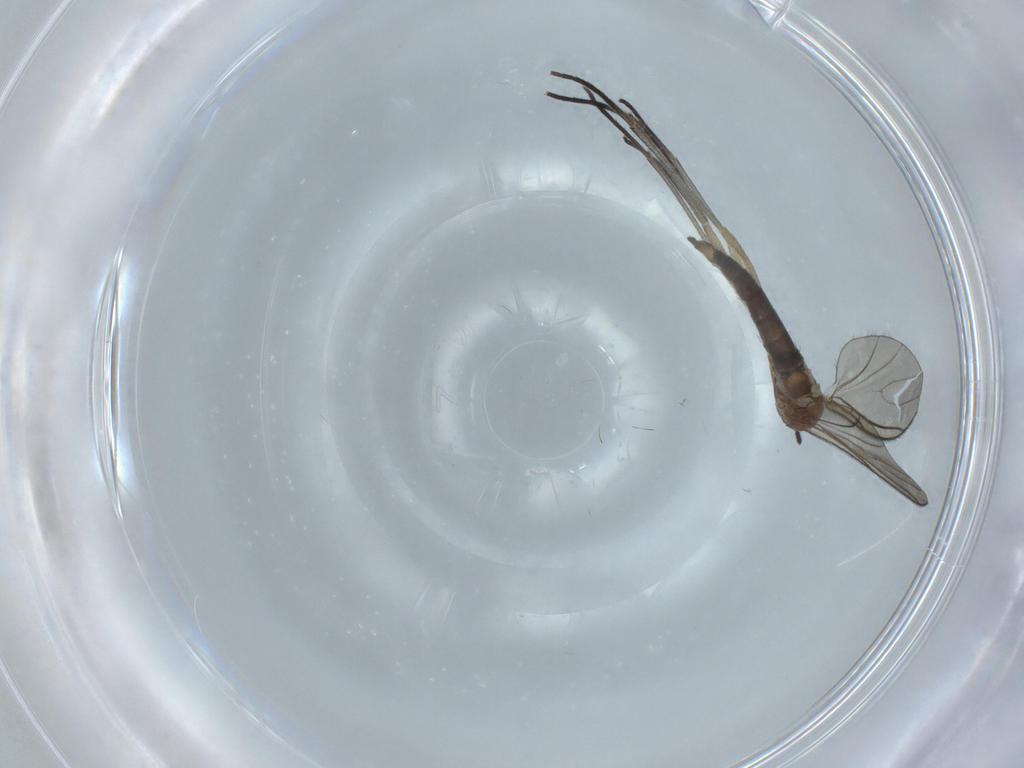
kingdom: Animalia
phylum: Arthropoda
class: Insecta
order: Diptera
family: Sciaridae
